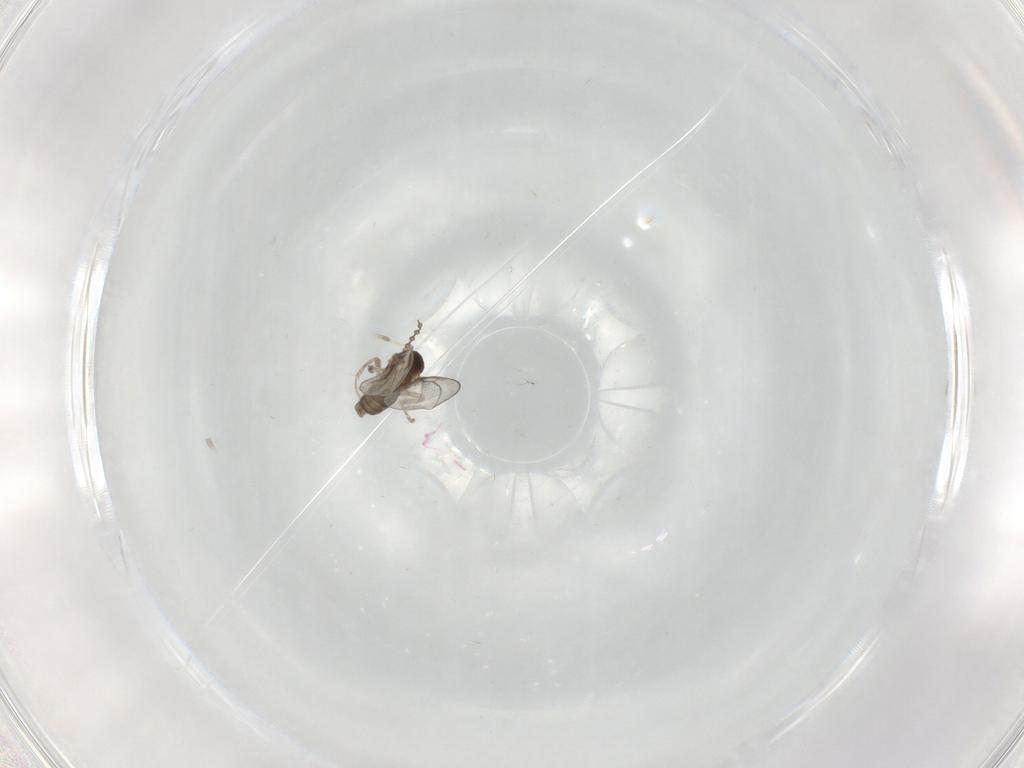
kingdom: Animalia
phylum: Arthropoda
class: Insecta
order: Diptera
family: Cecidomyiidae
